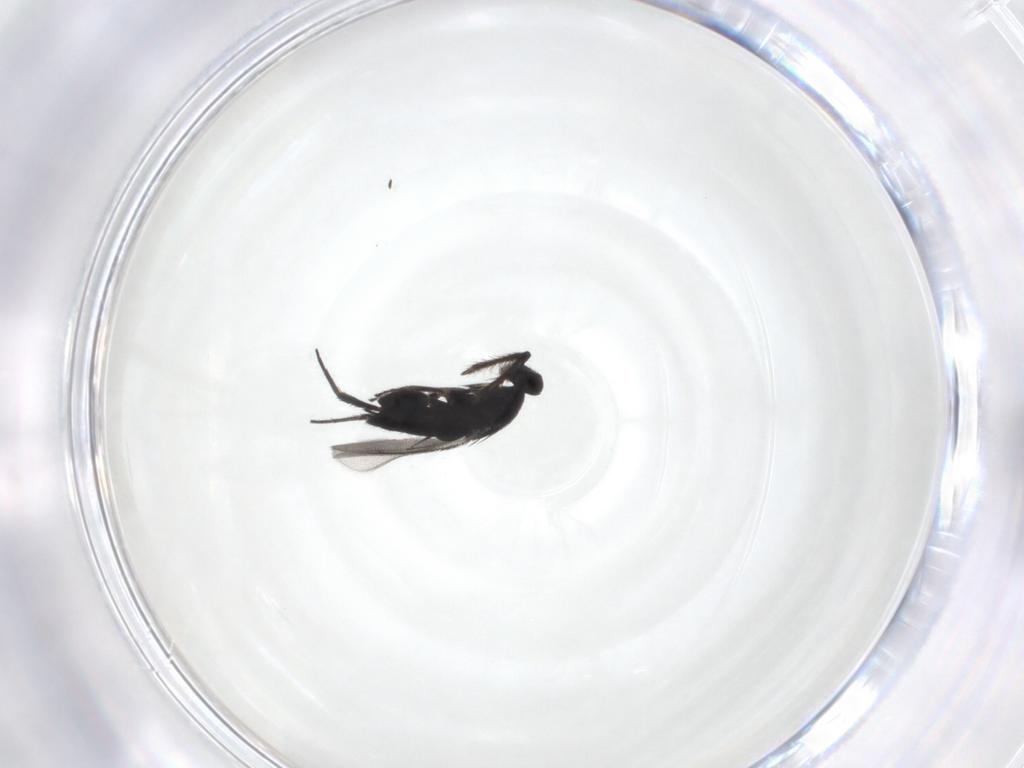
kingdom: Animalia
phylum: Arthropoda
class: Insecta
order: Hymenoptera
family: Eulophidae
